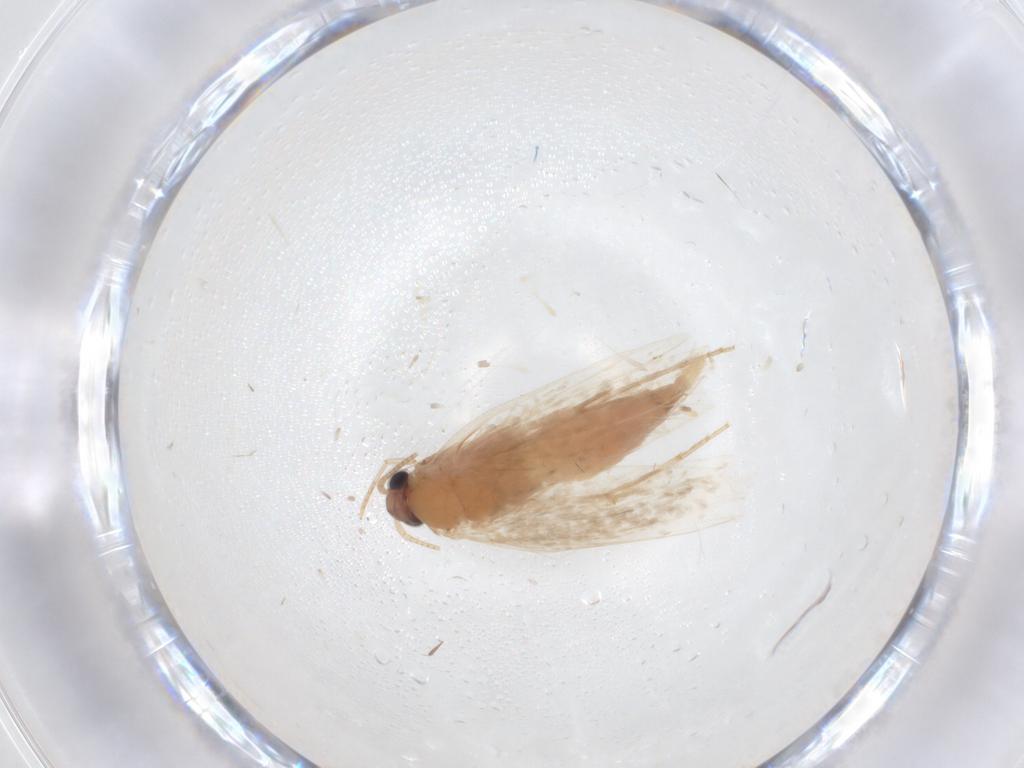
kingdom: Animalia
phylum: Arthropoda
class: Insecta
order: Lepidoptera
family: Nepticulidae
